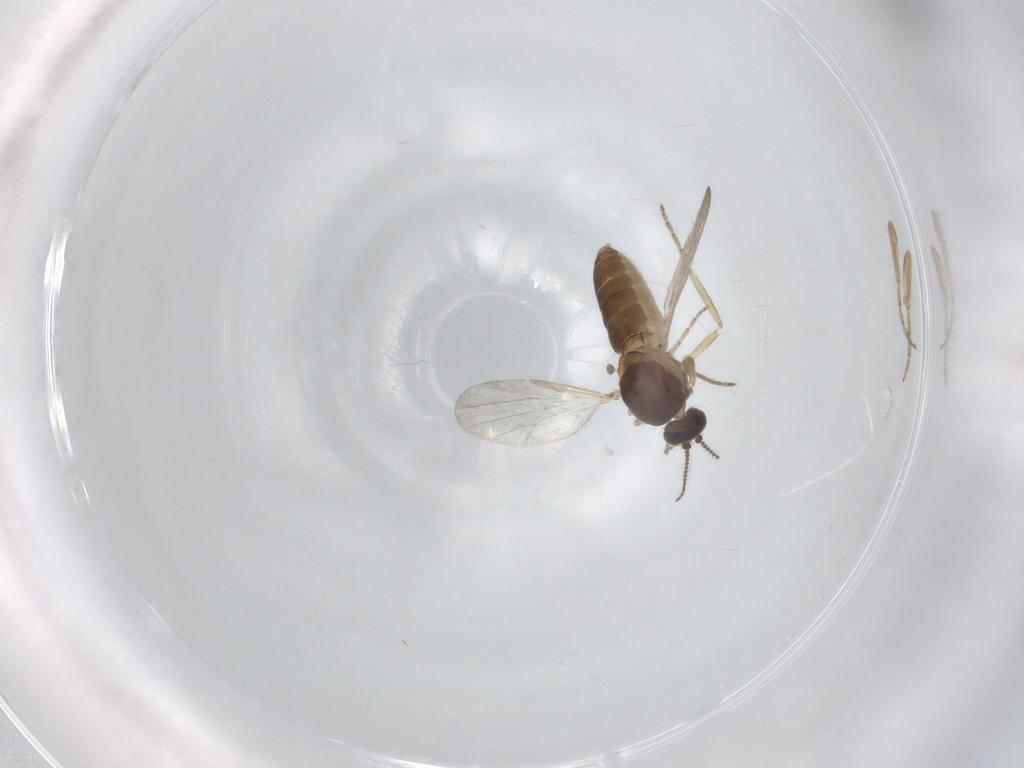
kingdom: Animalia
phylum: Arthropoda
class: Insecta
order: Diptera
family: Ceratopogonidae
